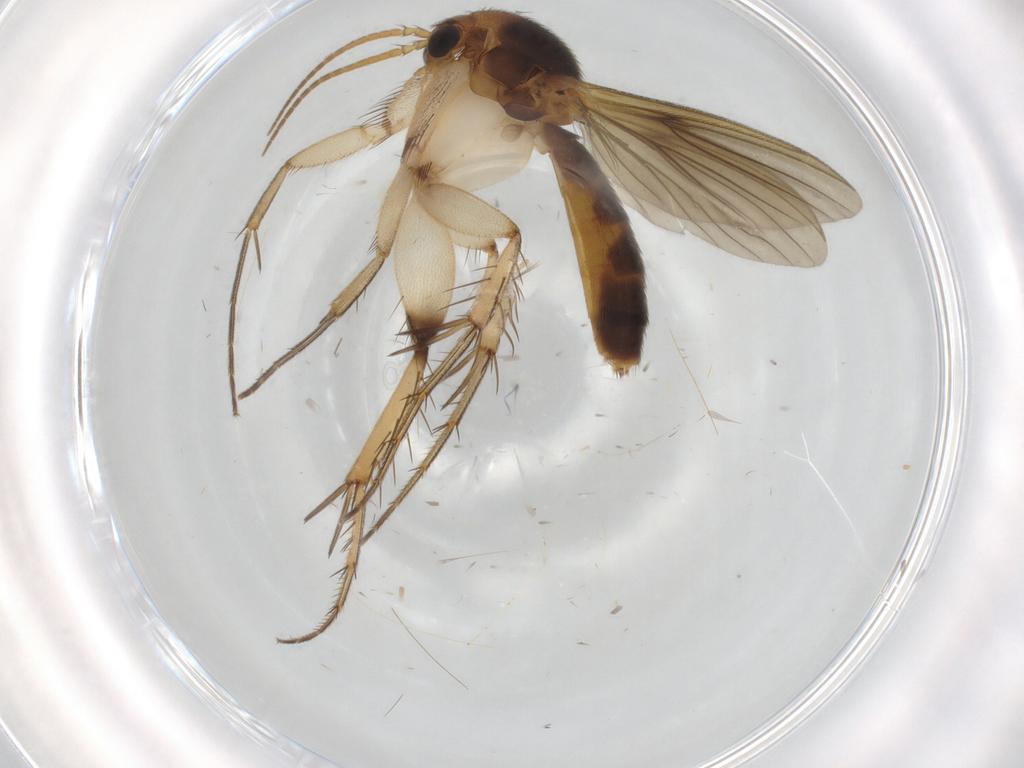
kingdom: Animalia
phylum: Arthropoda
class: Insecta
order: Diptera
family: Mycetophilidae
